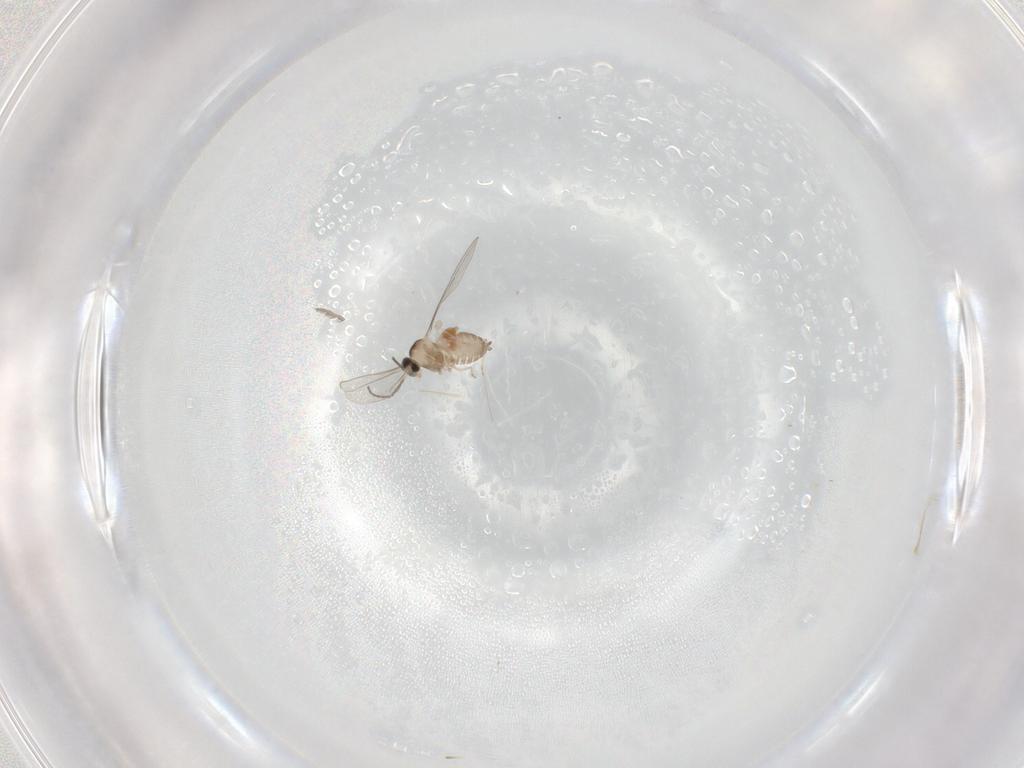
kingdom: Animalia
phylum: Arthropoda
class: Insecta
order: Diptera
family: Cecidomyiidae
